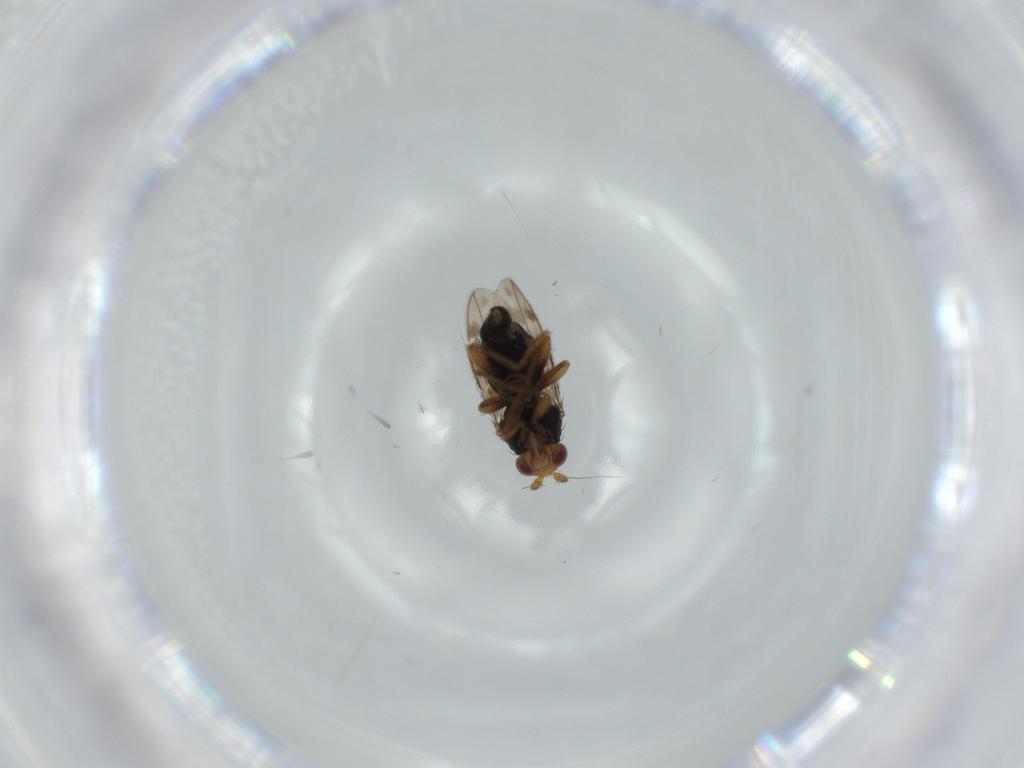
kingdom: Animalia
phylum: Arthropoda
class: Insecta
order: Diptera
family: Sphaeroceridae
